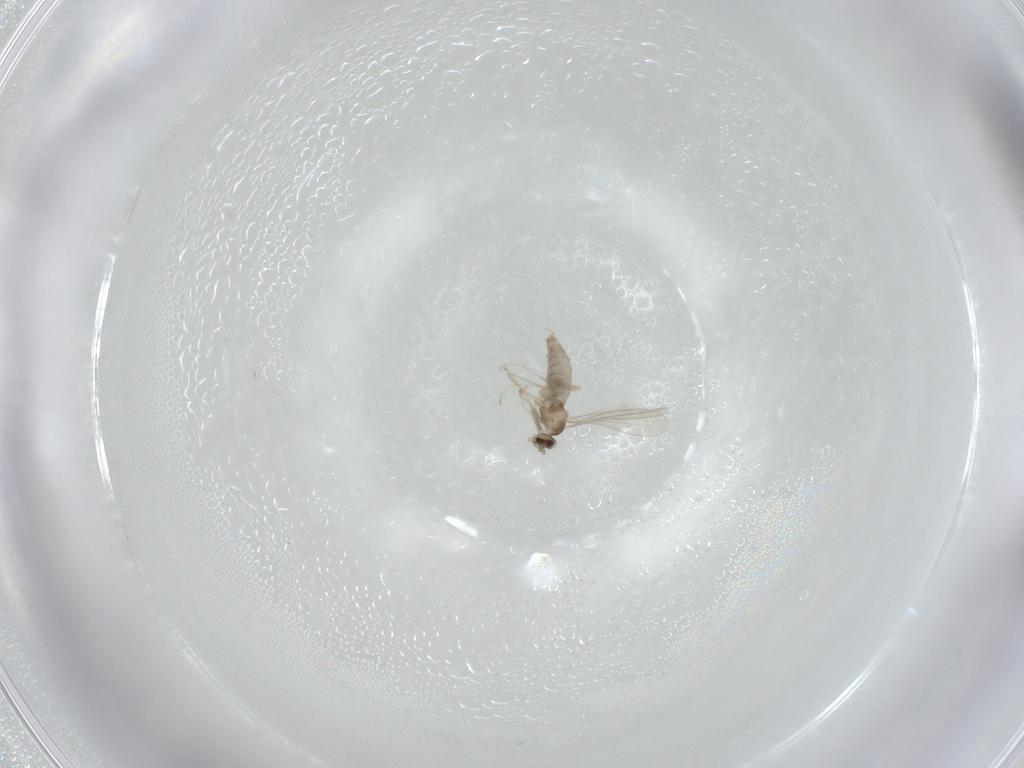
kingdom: Animalia
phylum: Arthropoda
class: Insecta
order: Diptera
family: Cecidomyiidae
